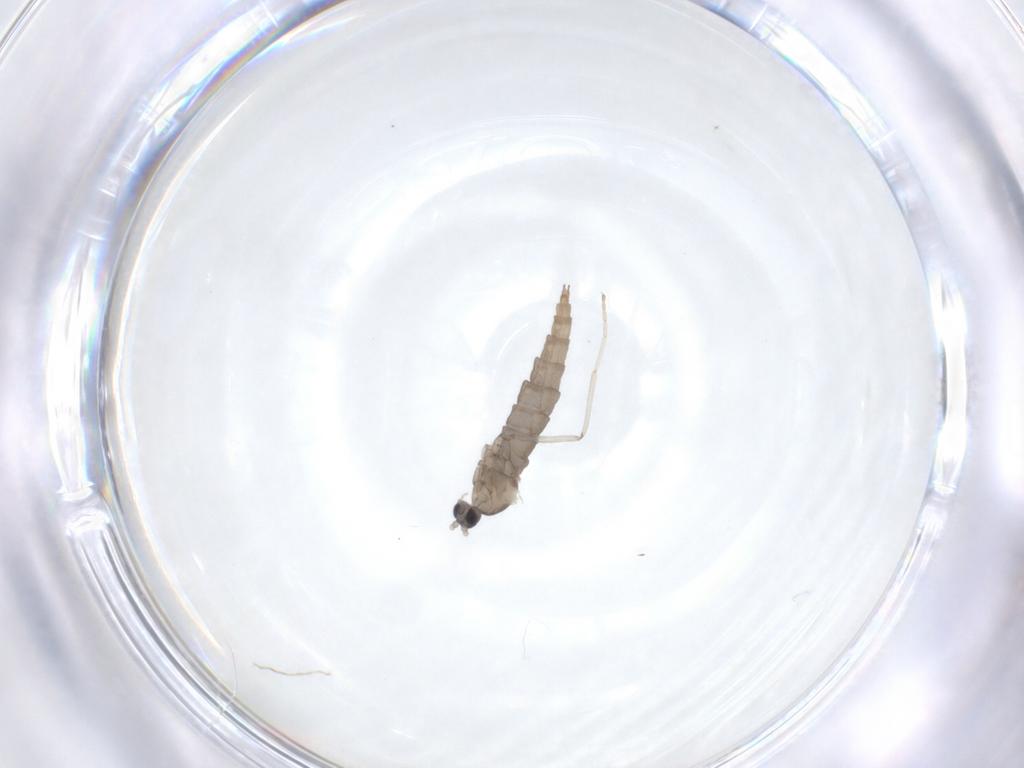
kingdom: Animalia
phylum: Arthropoda
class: Insecta
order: Diptera
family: Cecidomyiidae
